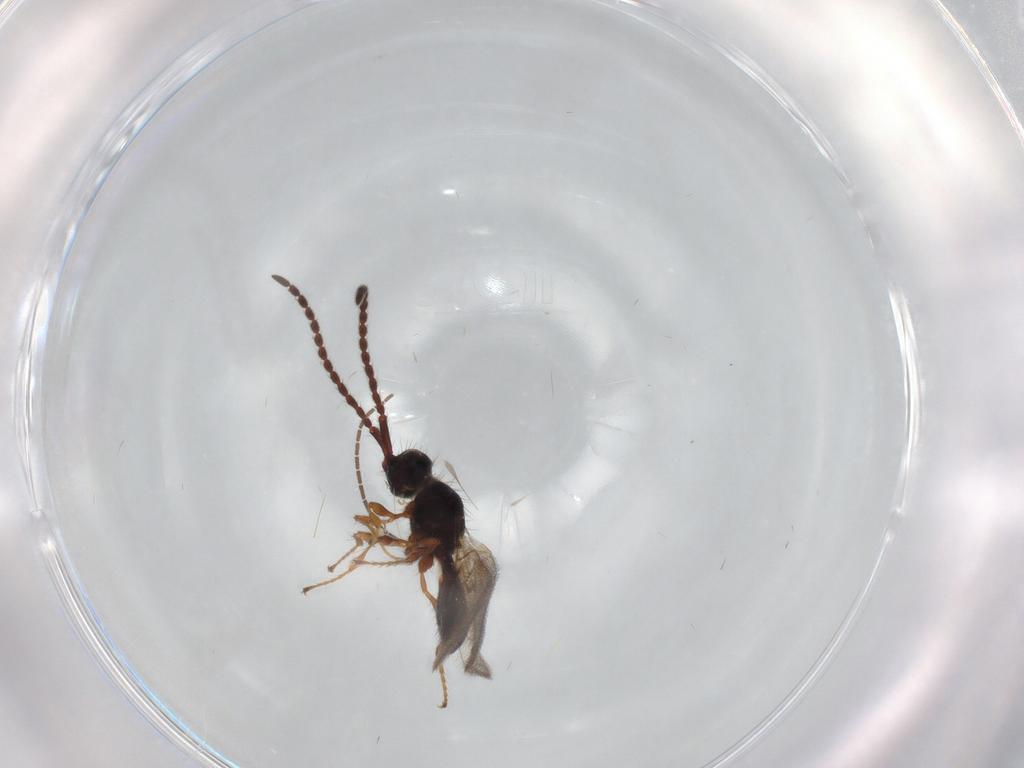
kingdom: Animalia
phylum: Arthropoda
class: Insecta
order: Hymenoptera
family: Diapriidae
